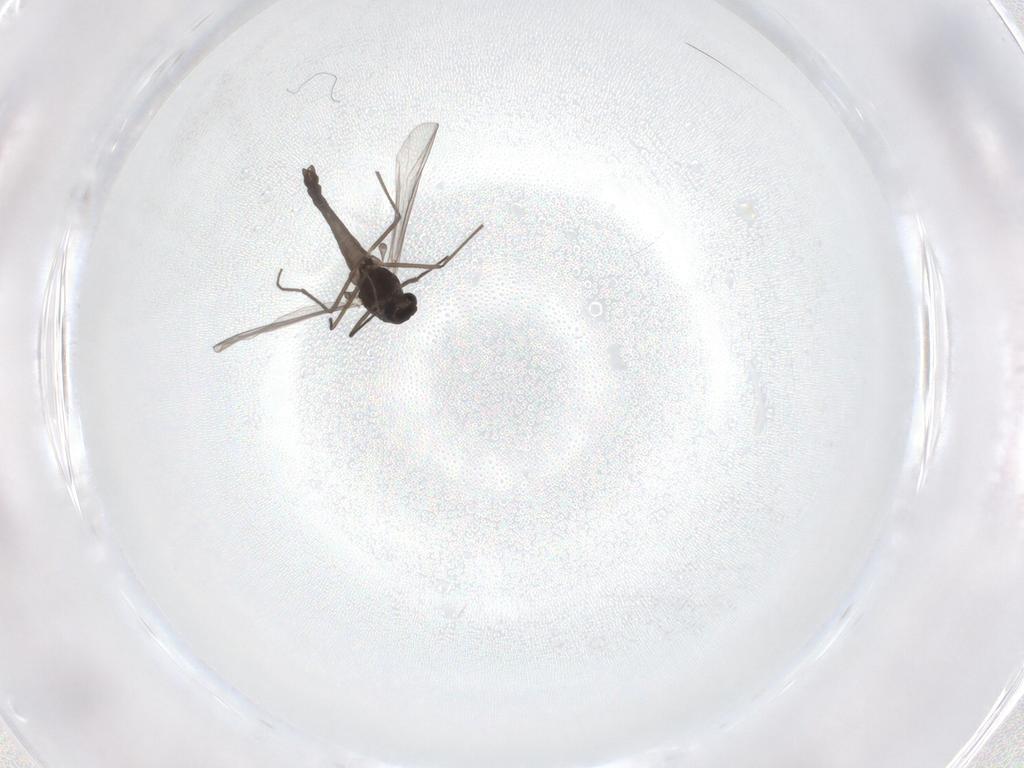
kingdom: Animalia
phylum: Arthropoda
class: Insecta
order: Diptera
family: Chironomidae
